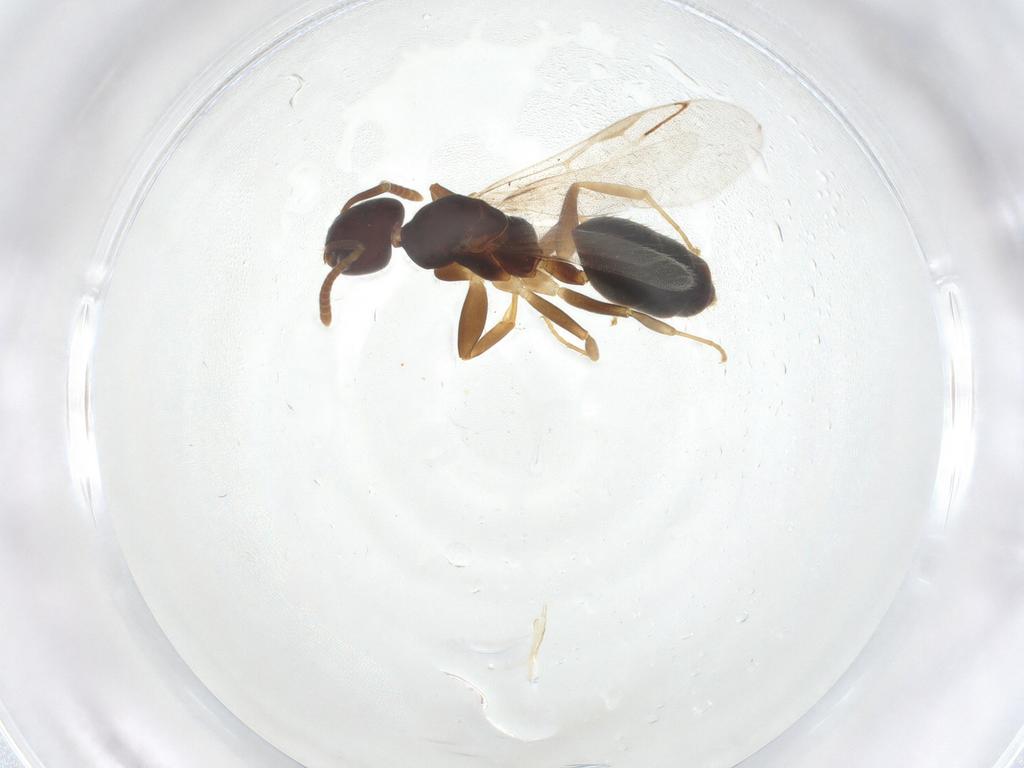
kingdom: Animalia
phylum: Arthropoda
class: Insecta
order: Hymenoptera
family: Formicidae
